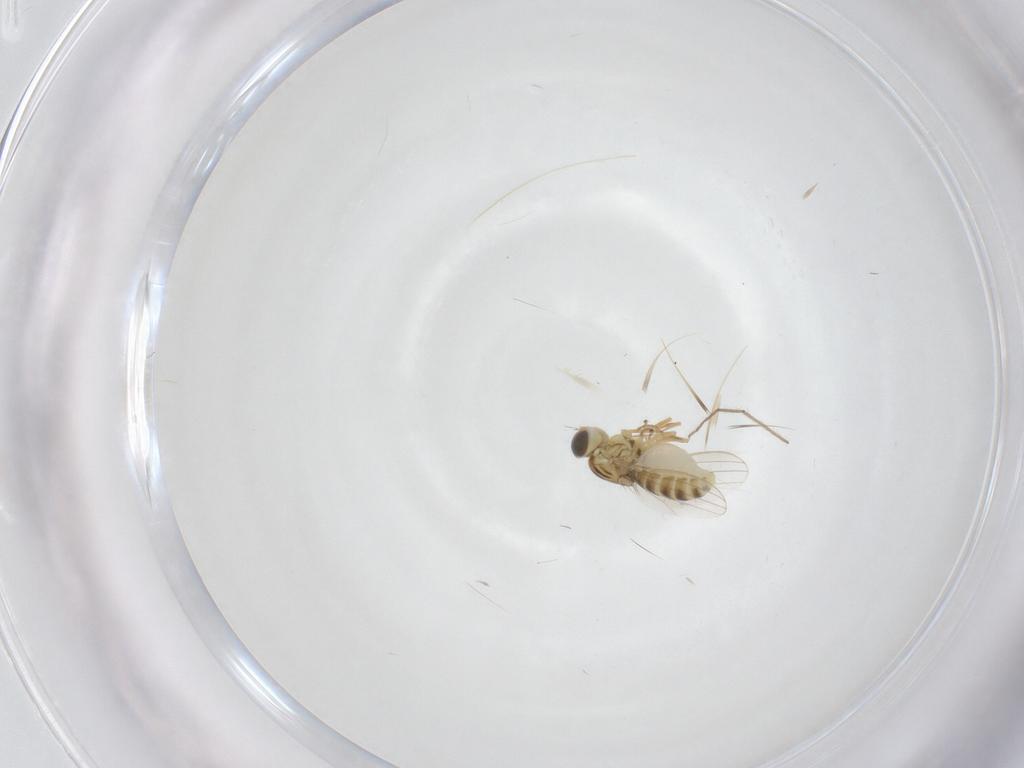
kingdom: Animalia
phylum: Arthropoda
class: Insecta
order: Diptera
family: Chyromyidae
